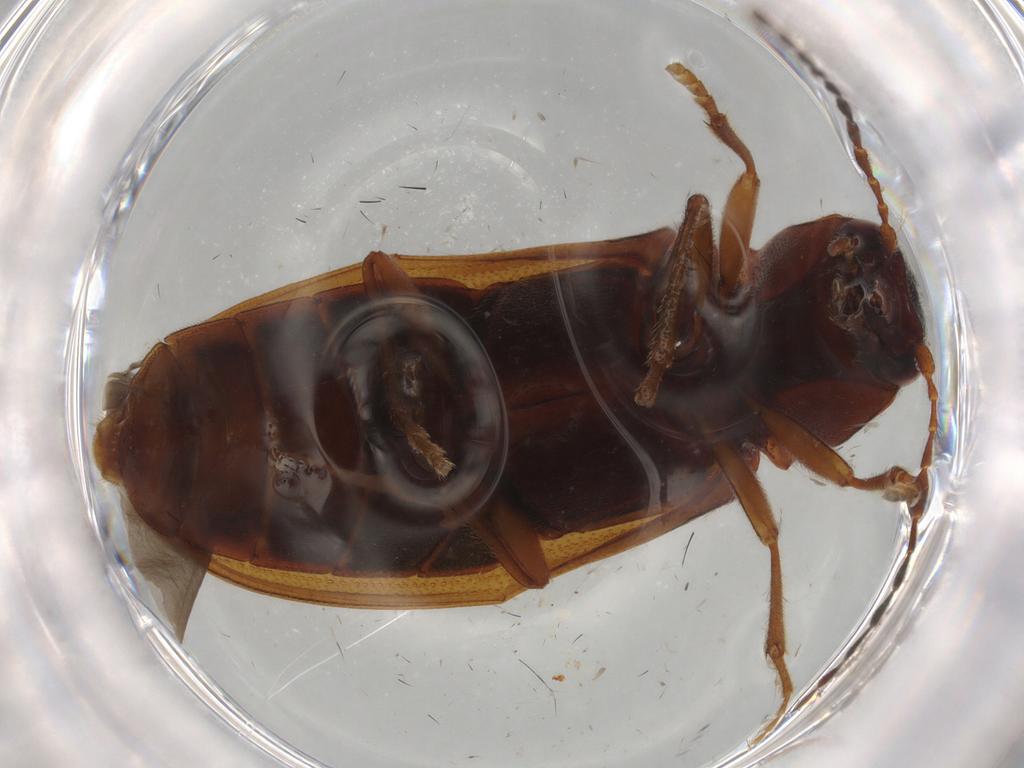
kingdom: Animalia
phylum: Arthropoda
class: Insecta
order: Coleoptera
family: Elateridae
